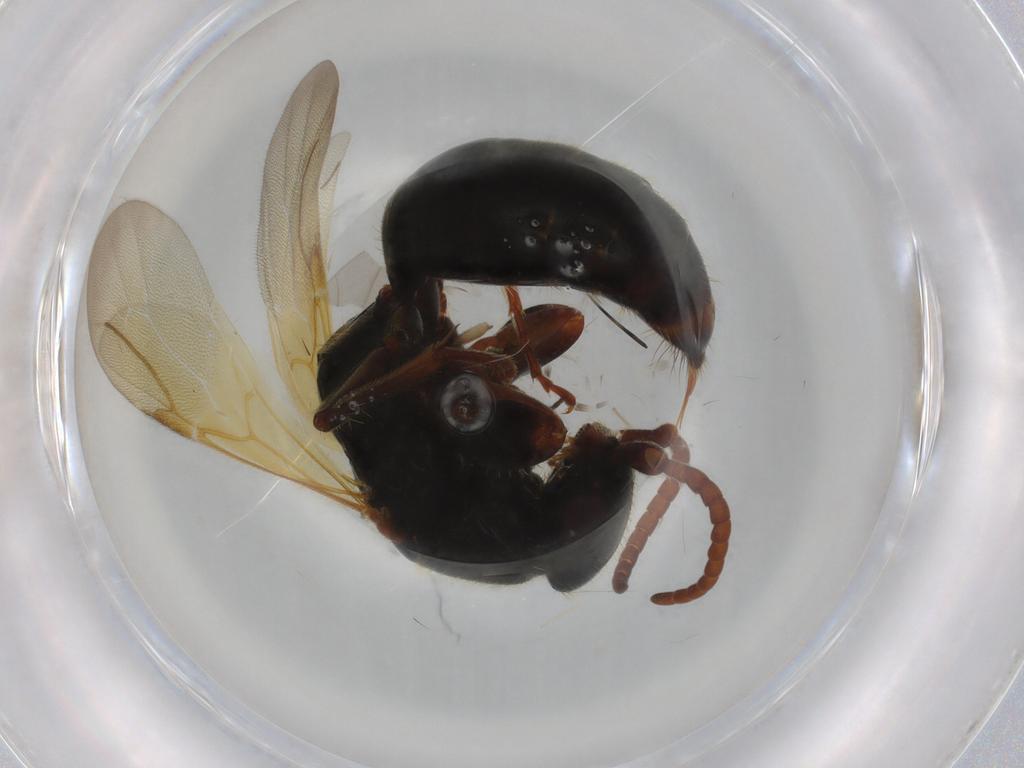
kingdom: Animalia
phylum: Arthropoda
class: Insecta
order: Hymenoptera
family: Bethylidae
